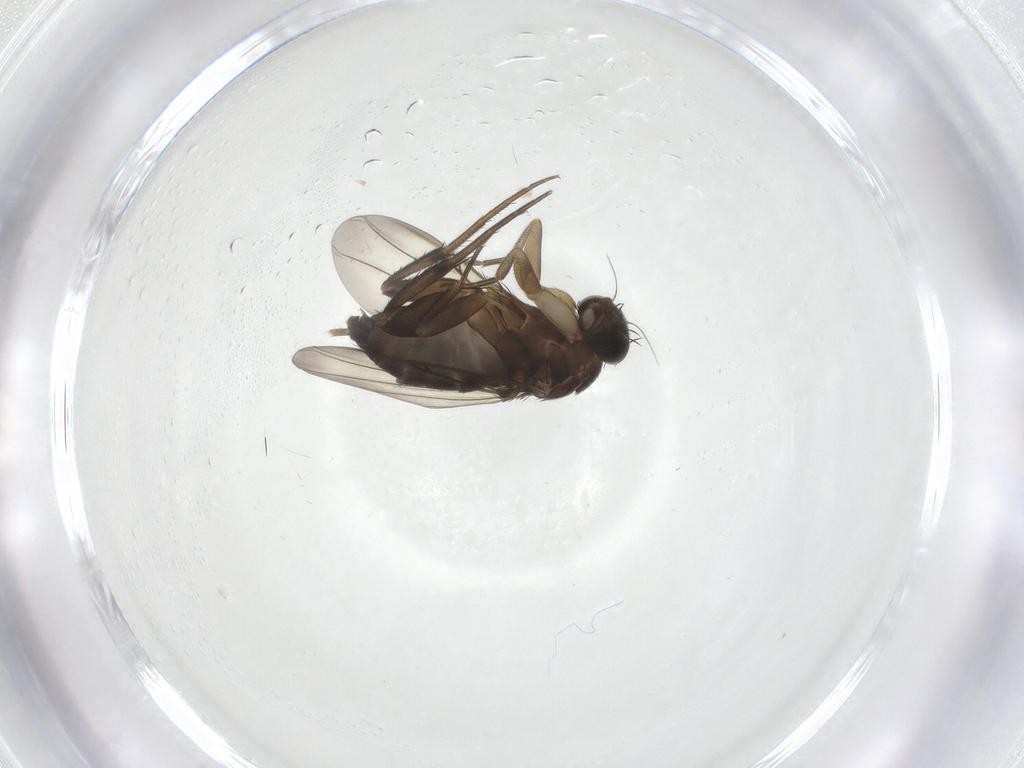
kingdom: Animalia
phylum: Arthropoda
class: Insecta
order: Diptera
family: Phoridae
